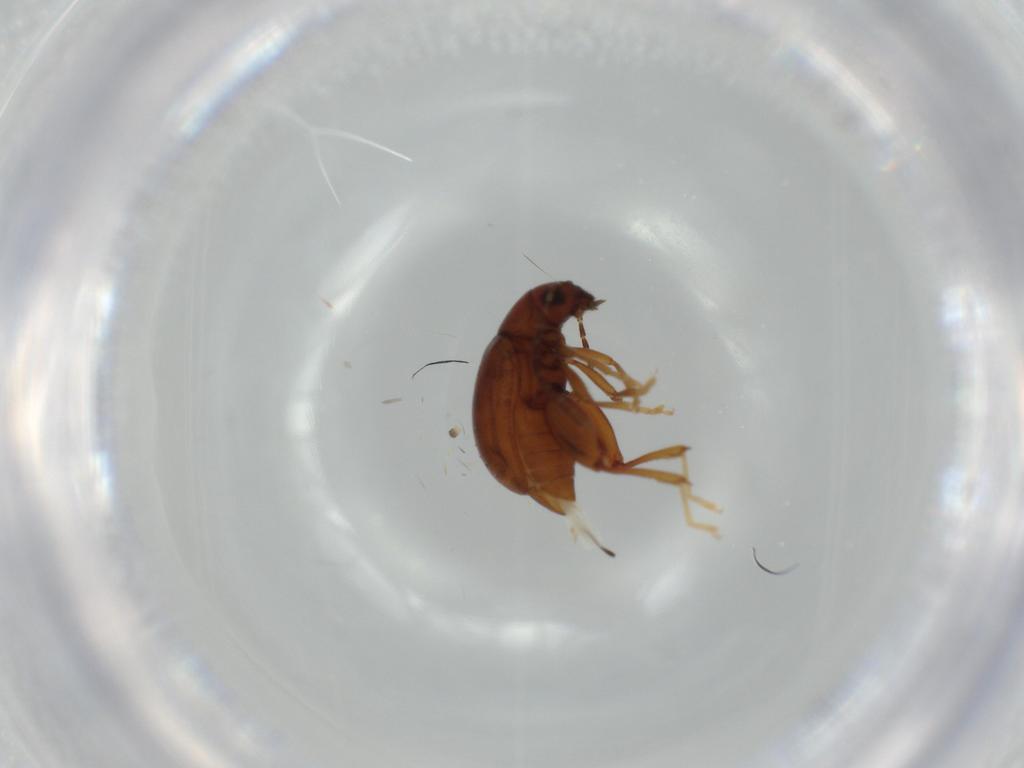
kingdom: Animalia
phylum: Arthropoda
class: Insecta
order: Coleoptera
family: Chrysomelidae
